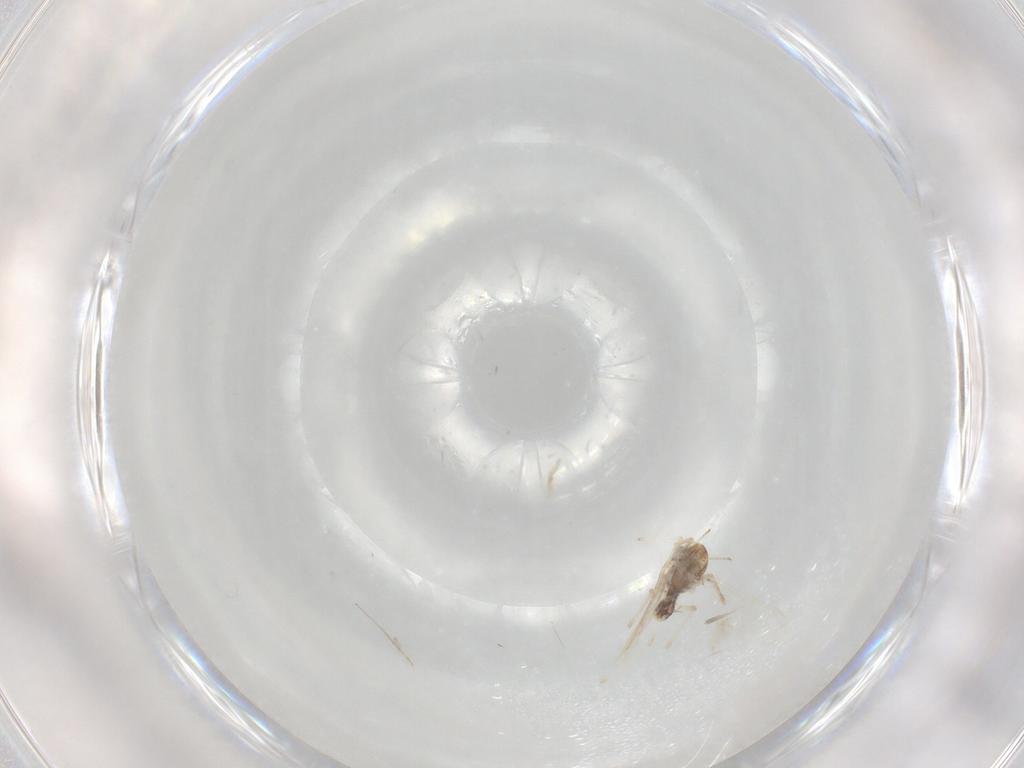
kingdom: Animalia
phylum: Arthropoda
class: Insecta
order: Diptera
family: Chironomidae
